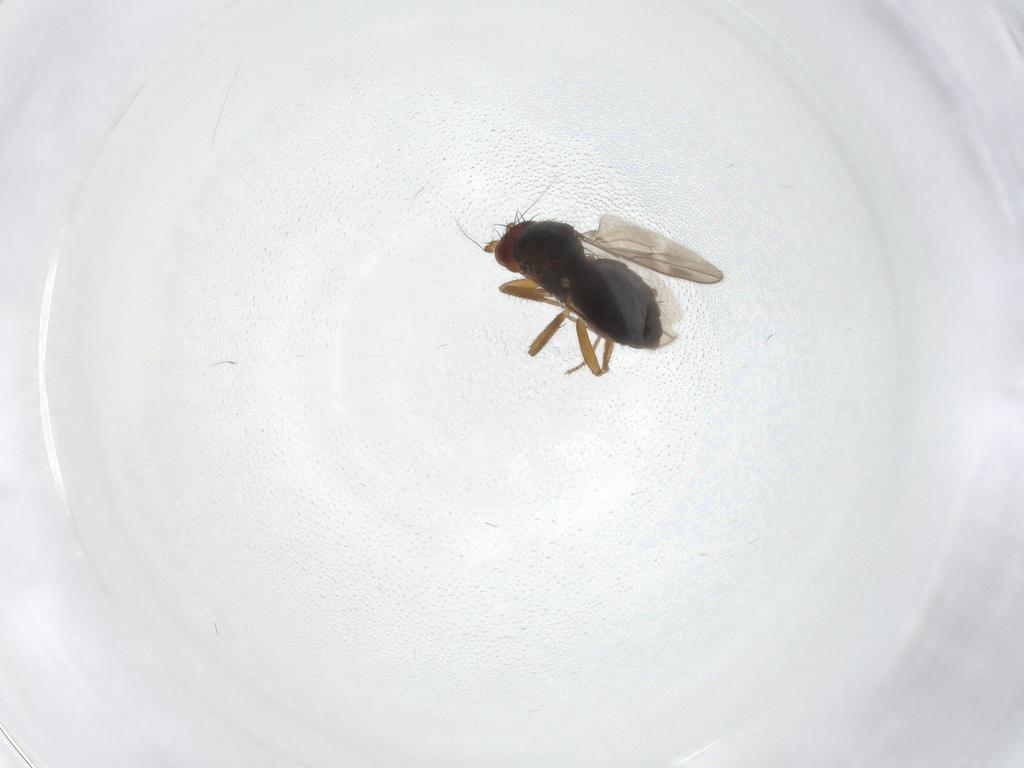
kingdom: Animalia
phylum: Arthropoda
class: Insecta
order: Diptera
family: Sphaeroceridae
